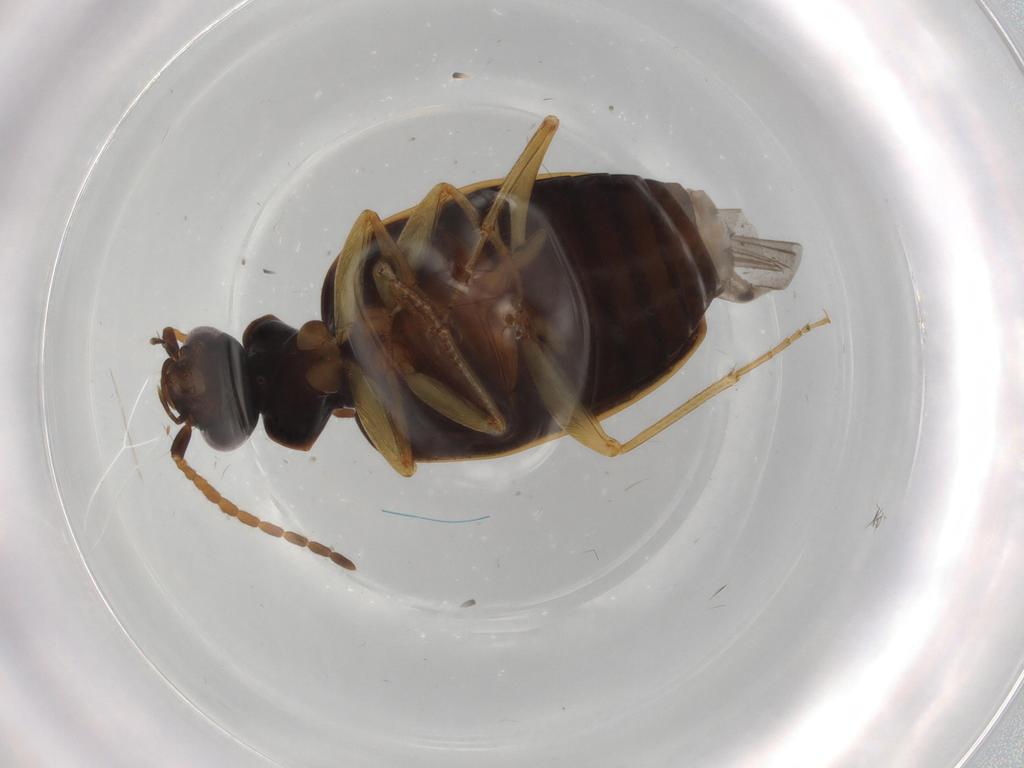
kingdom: Animalia
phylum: Arthropoda
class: Insecta
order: Coleoptera
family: Carabidae
